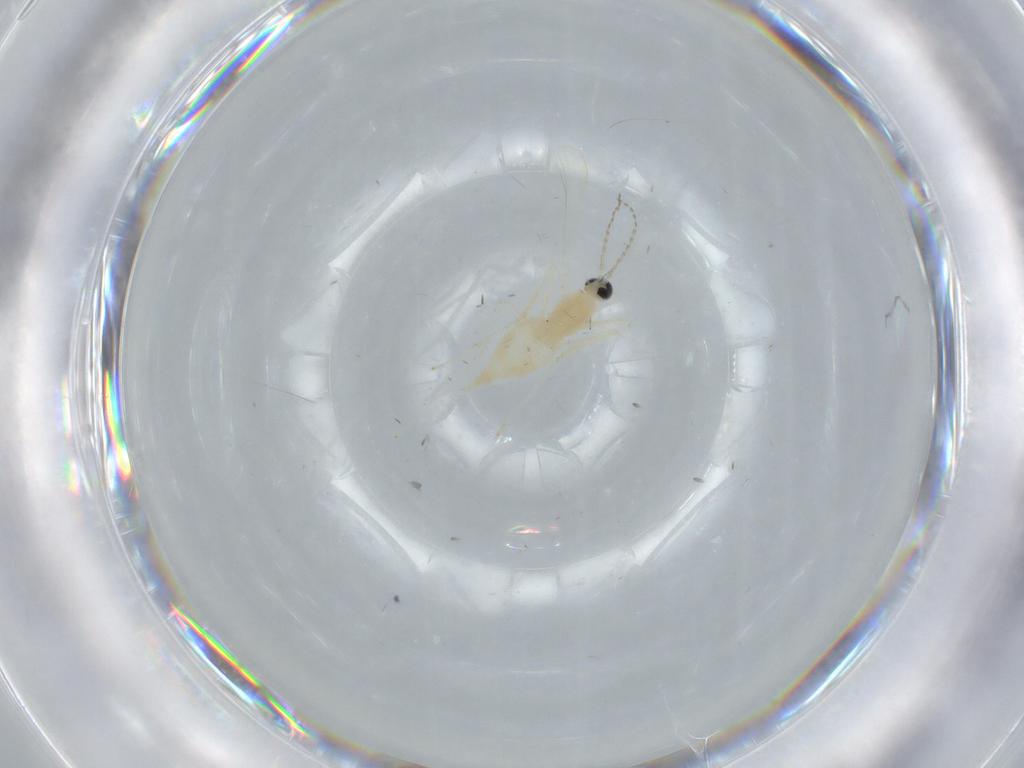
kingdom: Animalia
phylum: Arthropoda
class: Insecta
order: Diptera
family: Cecidomyiidae
